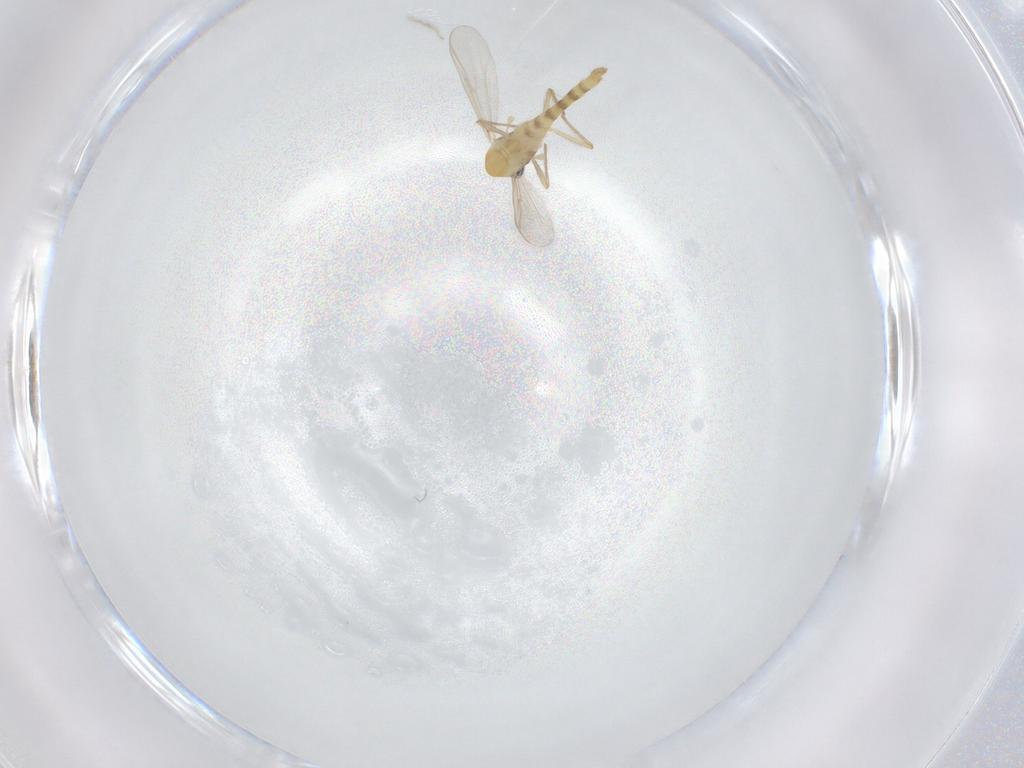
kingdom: Animalia
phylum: Arthropoda
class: Insecta
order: Diptera
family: Chironomidae
